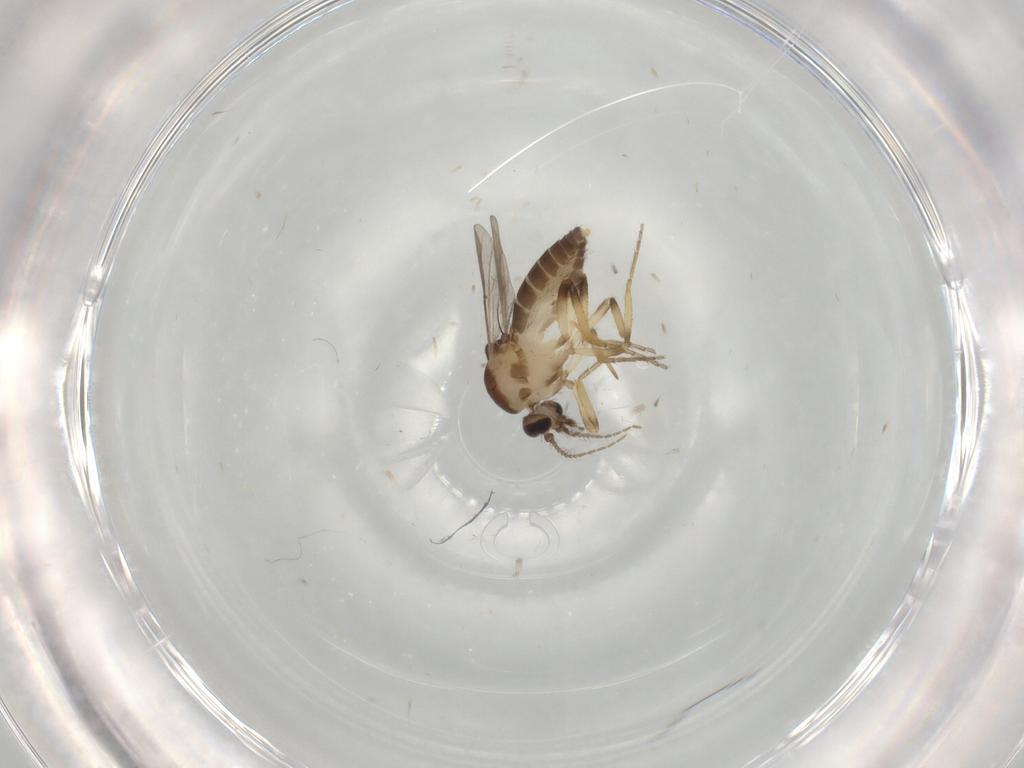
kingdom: Animalia
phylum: Arthropoda
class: Insecta
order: Diptera
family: Ceratopogonidae
